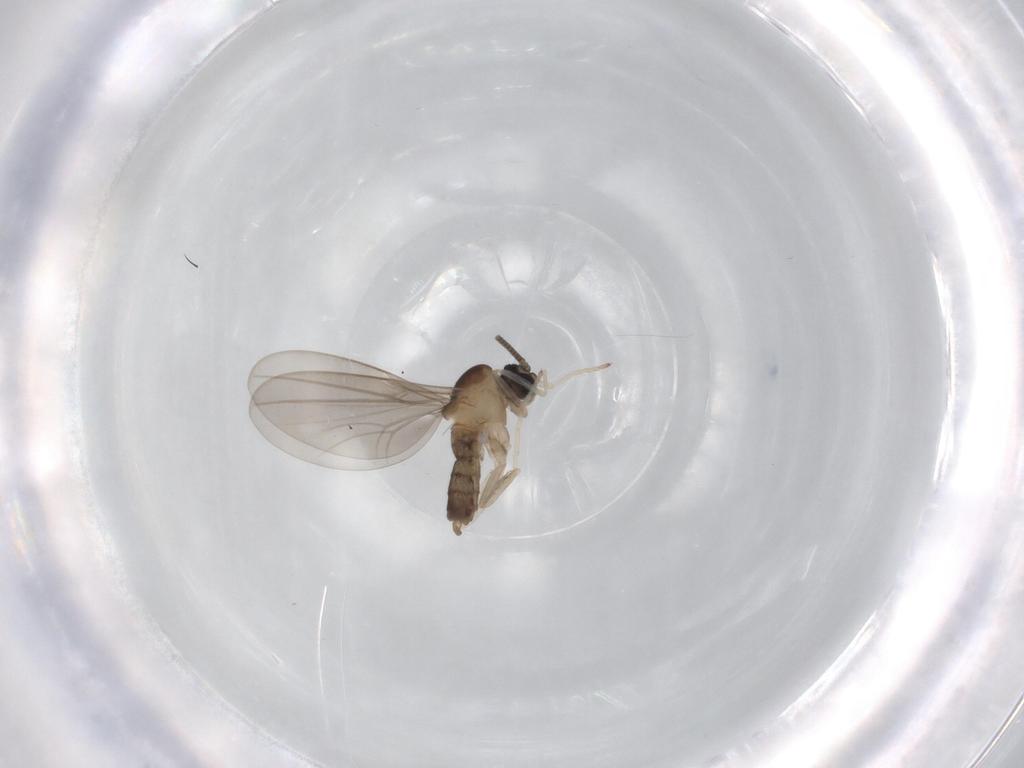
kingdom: Animalia
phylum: Arthropoda
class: Insecta
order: Diptera
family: Cecidomyiidae
